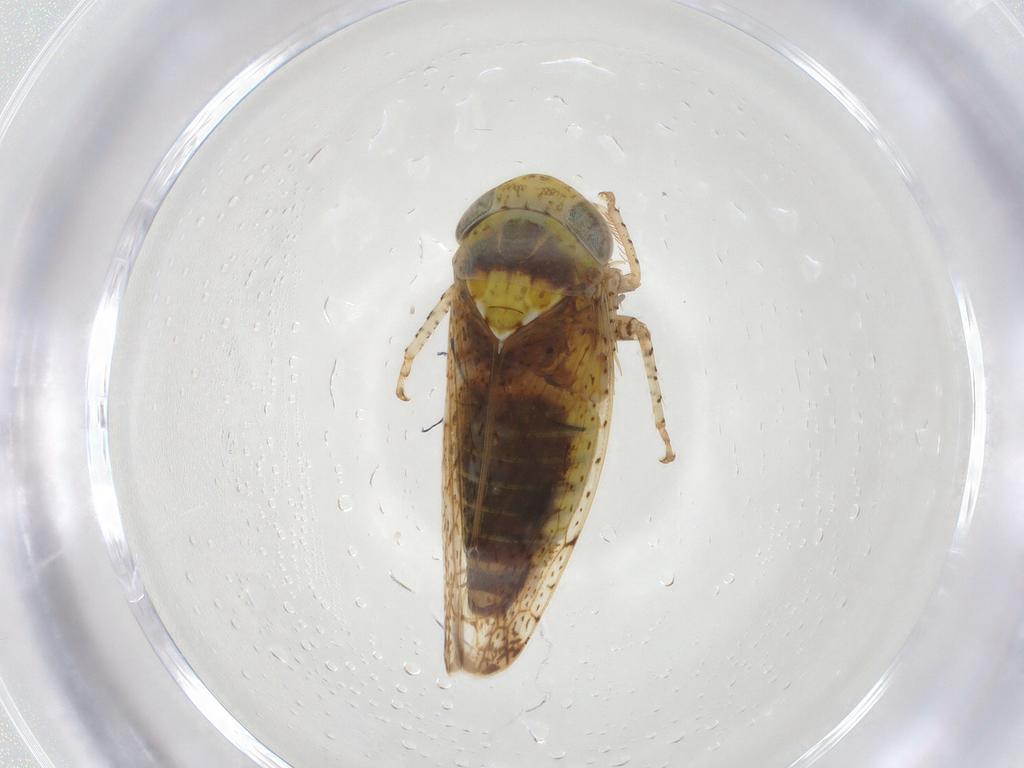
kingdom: Animalia
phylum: Arthropoda
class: Insecta
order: Hemiptera
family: Cicadellidae
